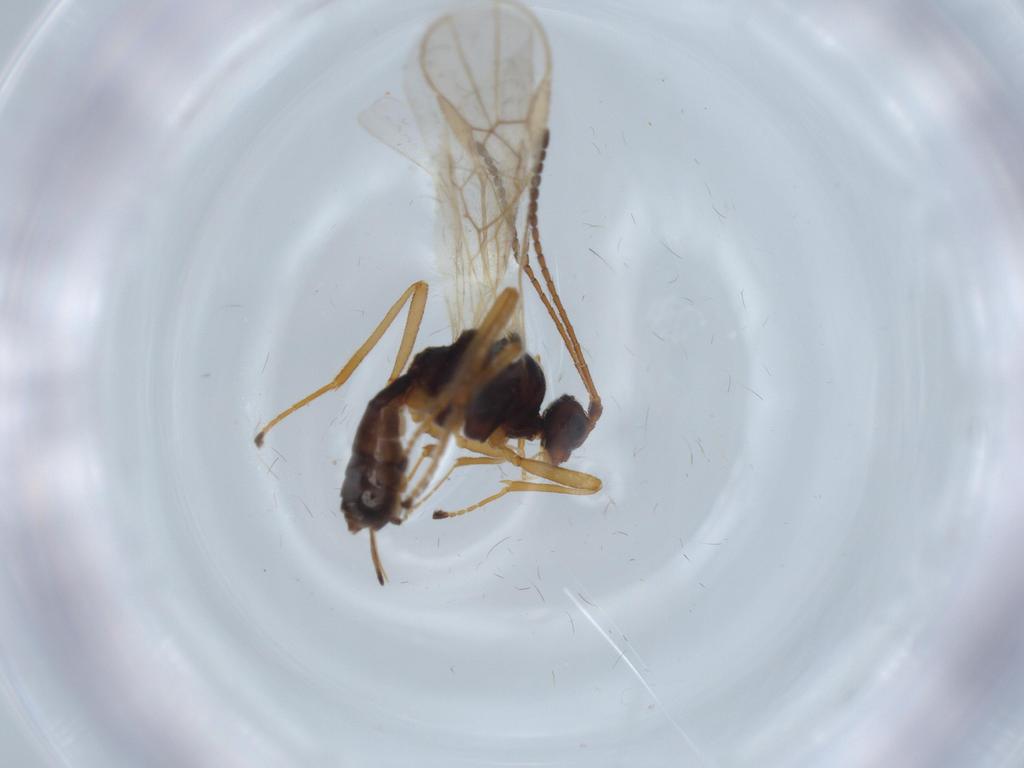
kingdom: Animalia
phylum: Arthropoda
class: Insecta
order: Hymenoptera
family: Braconidae
